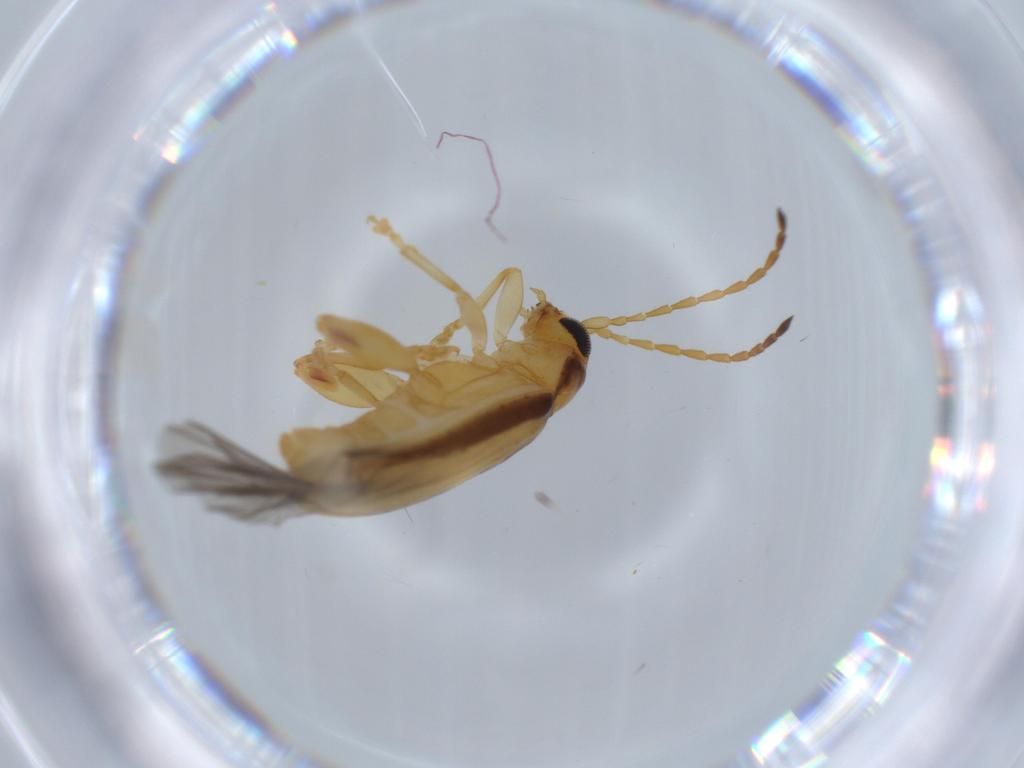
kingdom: Animalia
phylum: Arthropoda
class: Insecta
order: Coleoptera
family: Chrysomelidae
